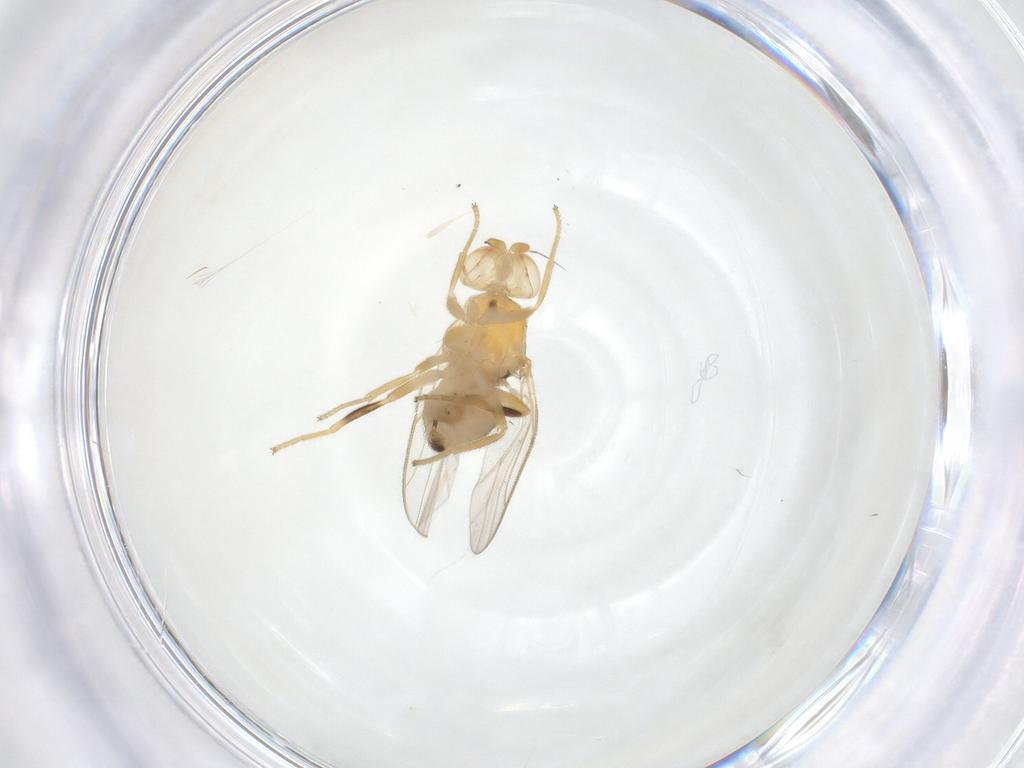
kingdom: Animalia
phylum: Arthropoda
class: Insecta
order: Diptera
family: Chloropidae
